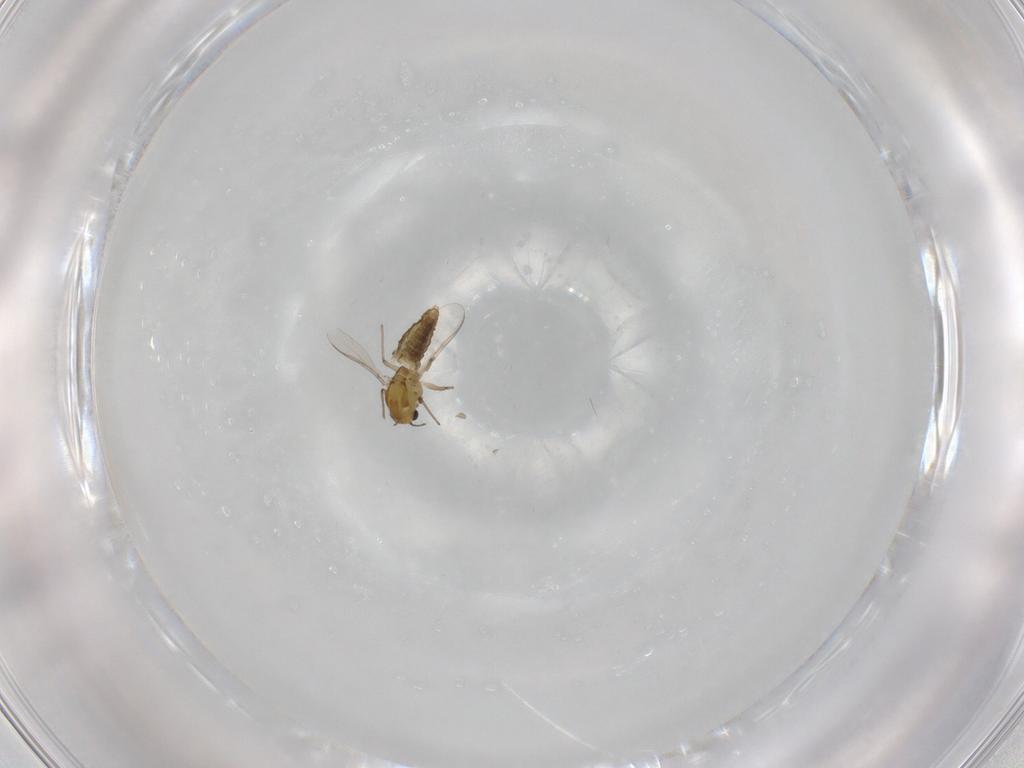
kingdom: Animalia
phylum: Arthropoda
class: Insecta
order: Diptera
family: Chironomidae
